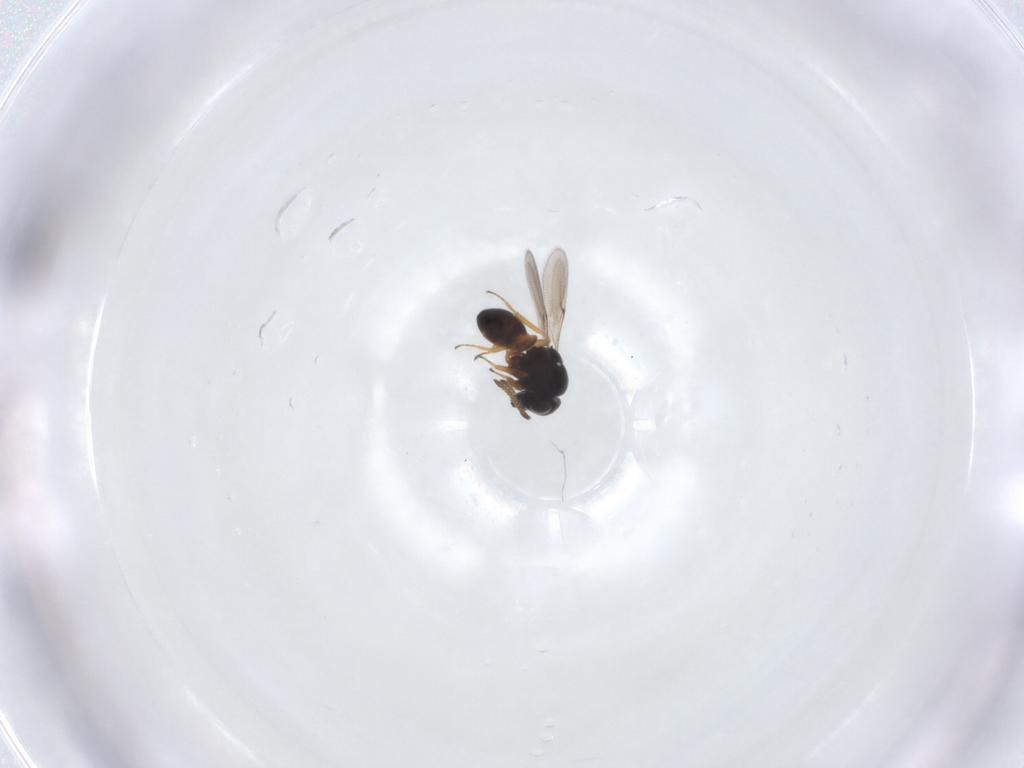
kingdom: Animalia
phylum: Arthropoda
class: Insecta
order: Hymenoptera
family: Scelionidae
